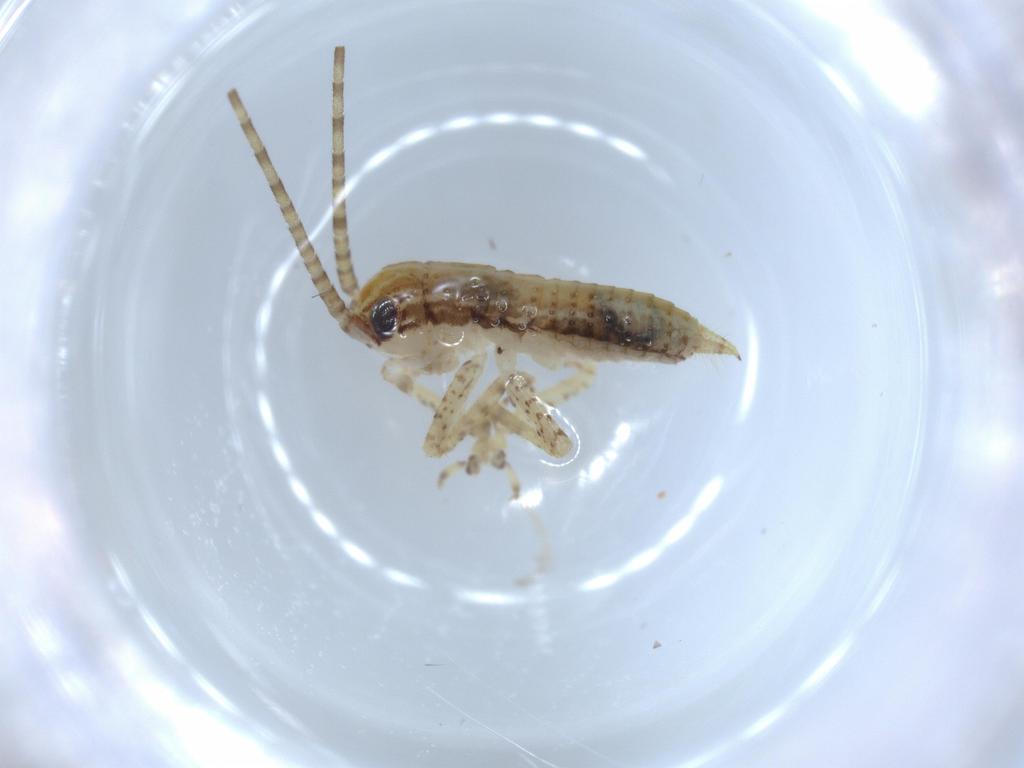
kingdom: Animalia
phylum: Arthropoda
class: Insecta
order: Orthoptera
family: Gryllidae
